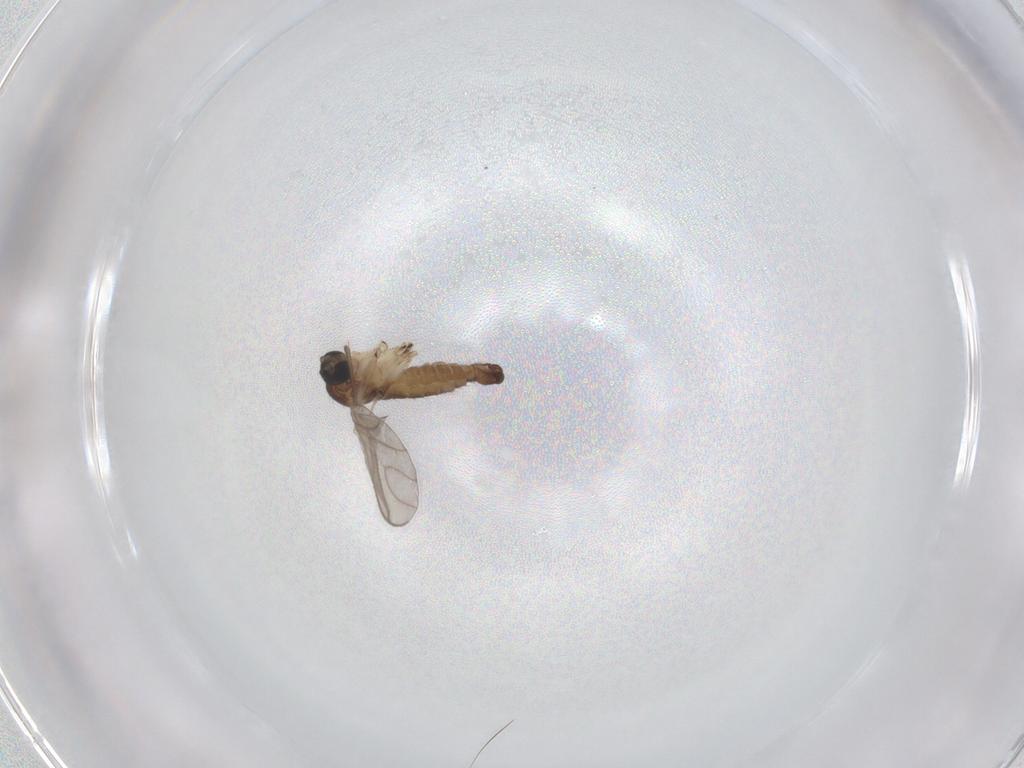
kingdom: Animalia
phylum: Arthropoda
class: Insecta
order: Diptera
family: Sciaridae
